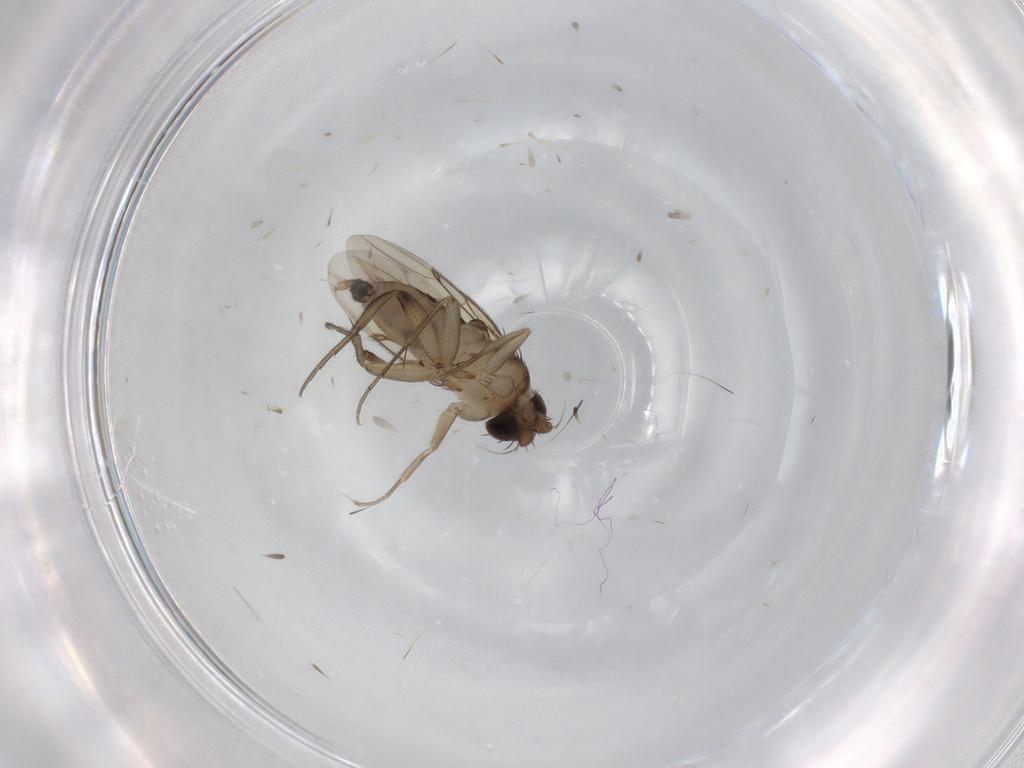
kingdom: Animalia
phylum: Arthropoda
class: Insecta
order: Diptera
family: Phoridae
